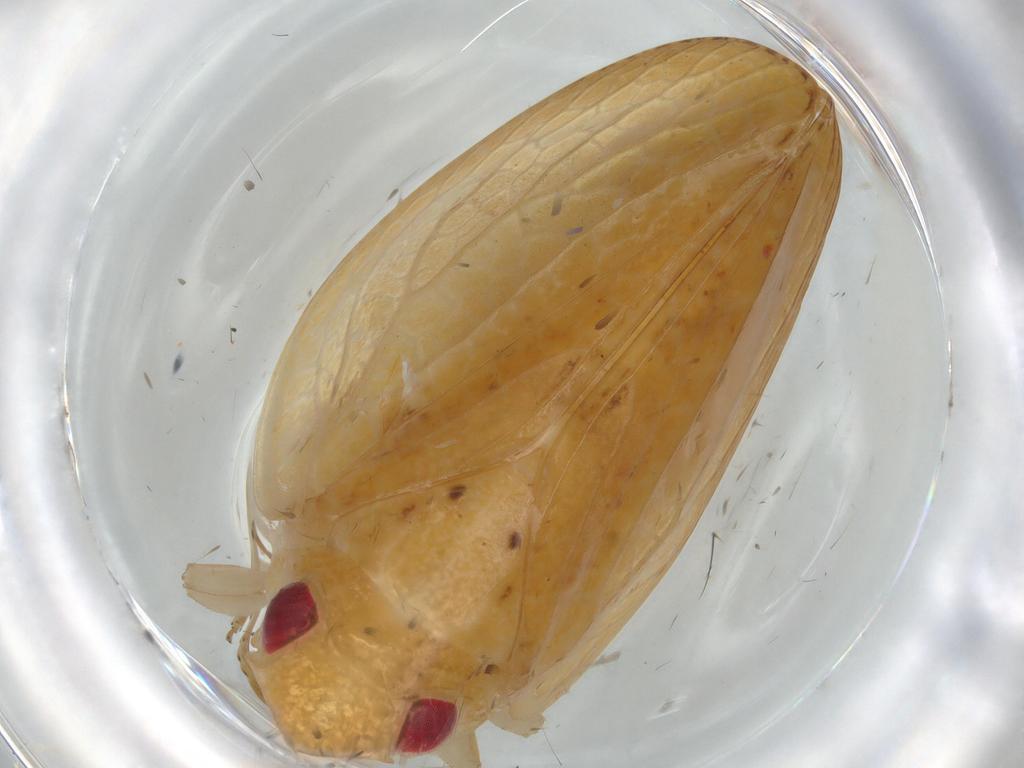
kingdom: Animalia
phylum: Arthropoda
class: Insecta
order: Hemiptera
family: Acanaloniidae
